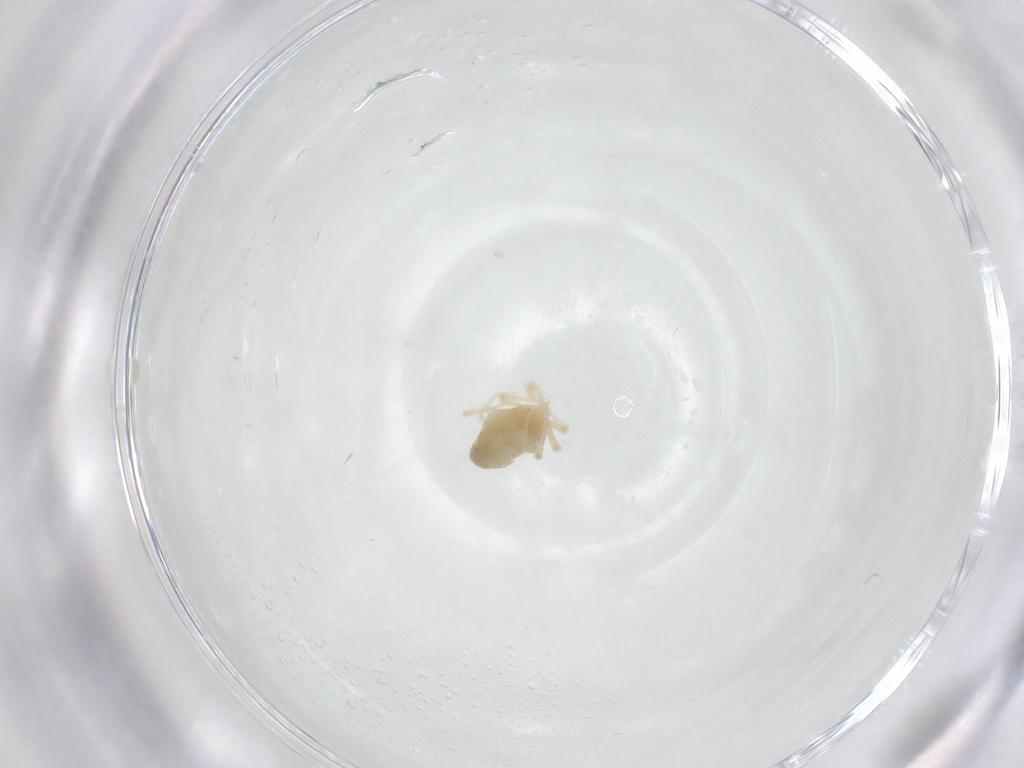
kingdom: Animalia
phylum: Arthropoda
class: Arachnida
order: Trombidiformes
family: Anystidae
